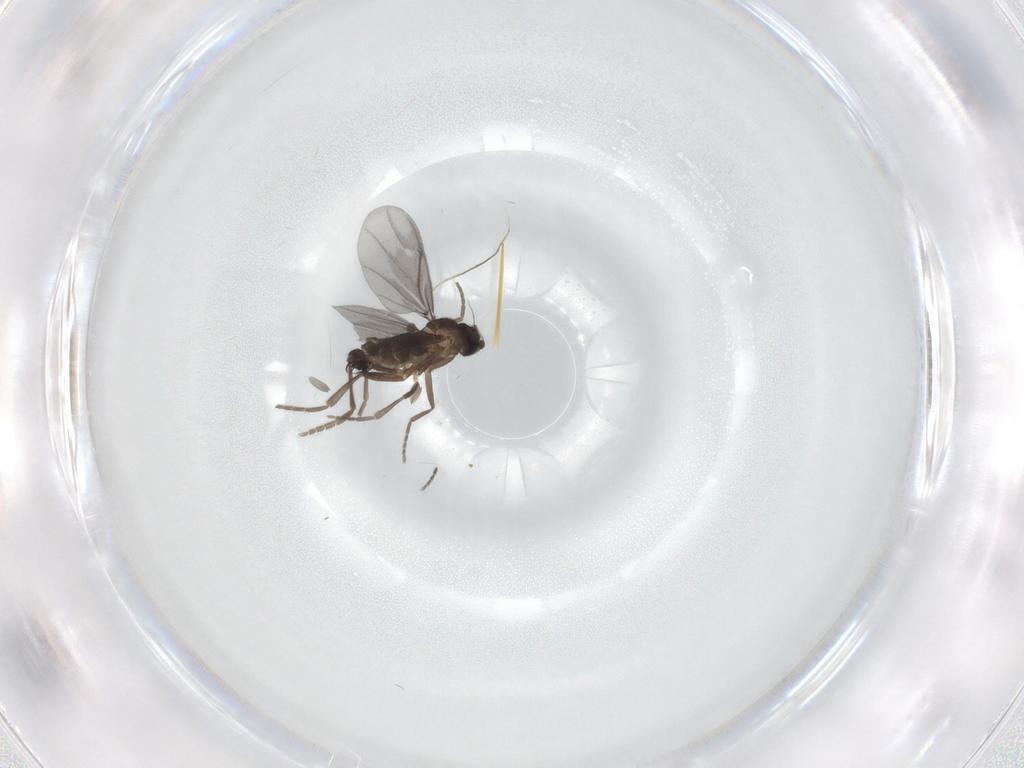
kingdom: Animalia
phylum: Arthropoda
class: Insecta
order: Diptera
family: Phoridae
